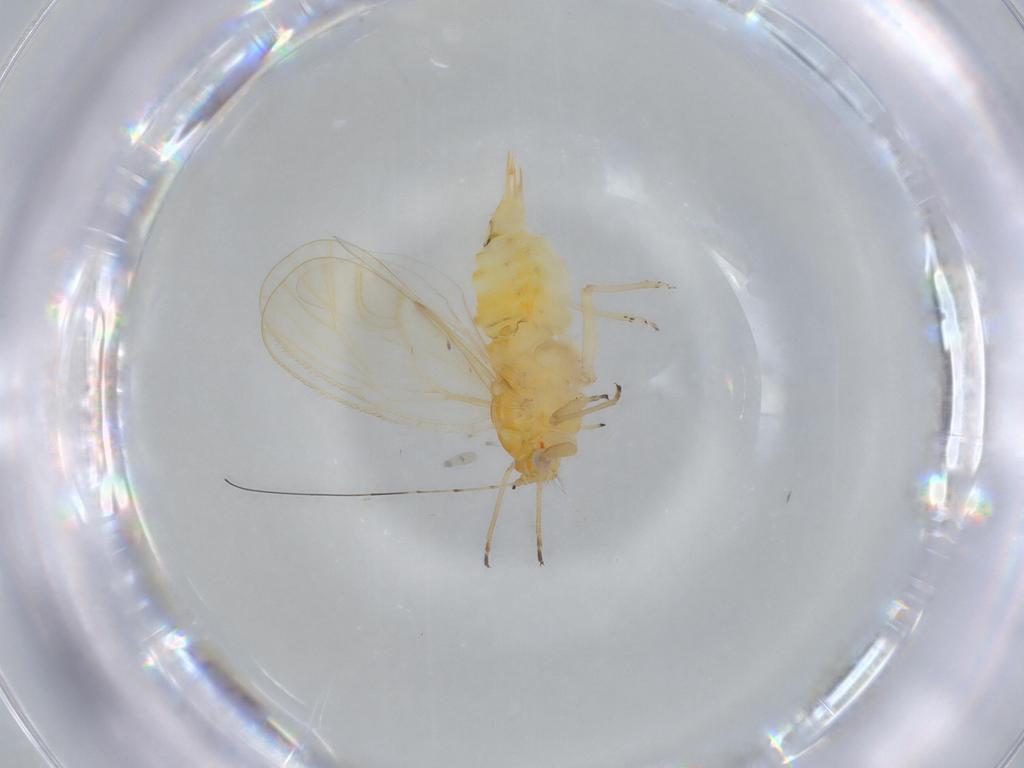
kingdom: Animalia
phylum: Arthropoda
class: Insecta
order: Hemiptera
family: Psyllidae
